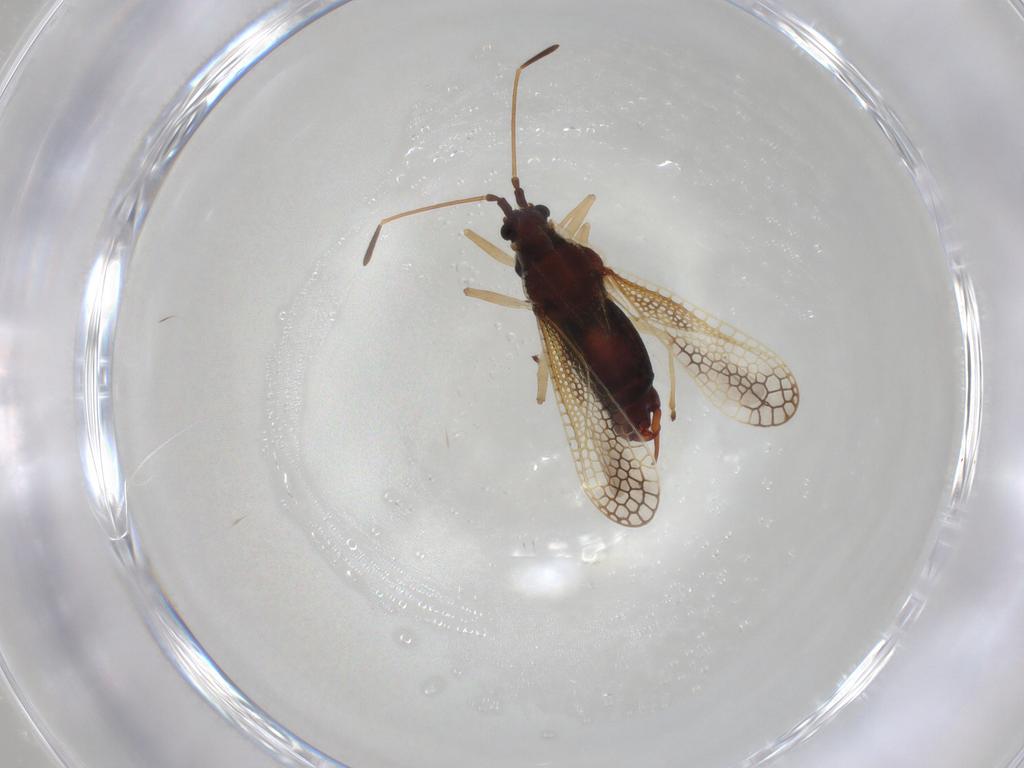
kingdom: Animalia
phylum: Arthropoda
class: Insecta
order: Hemiptera
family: Tingidae
